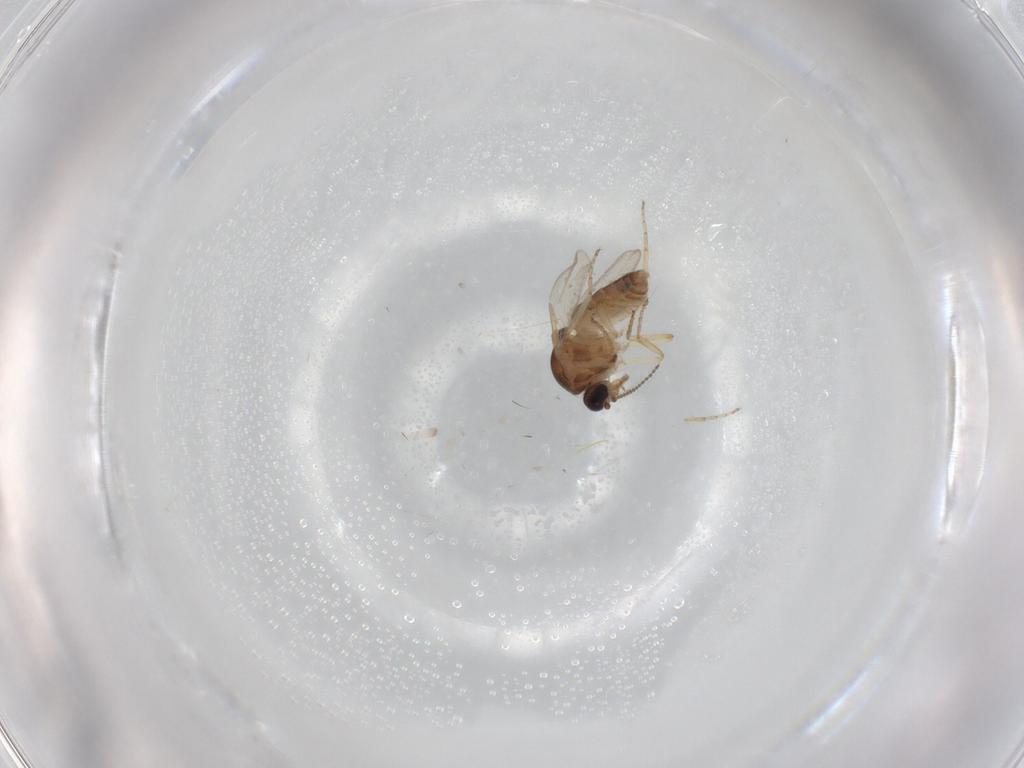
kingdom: Animalia
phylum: Arthropoda
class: Insecta
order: Diptera
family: Ceratopogonidae
